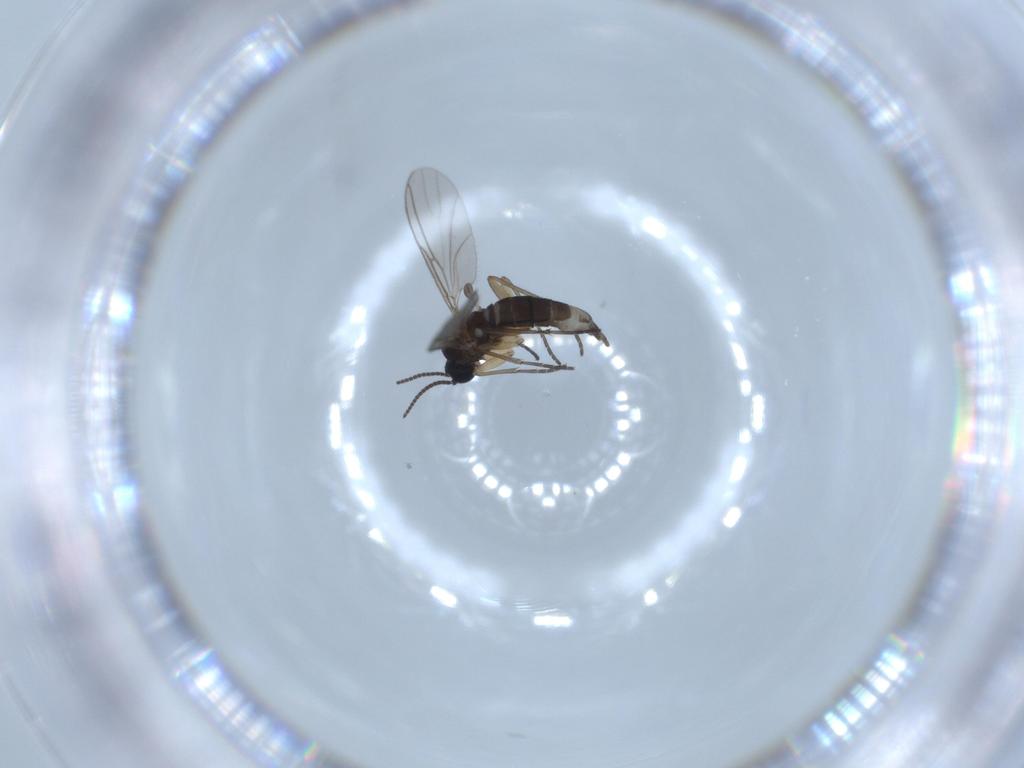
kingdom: Animalia
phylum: Arthropoda
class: Insecta
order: Diptera
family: Sciaridae
